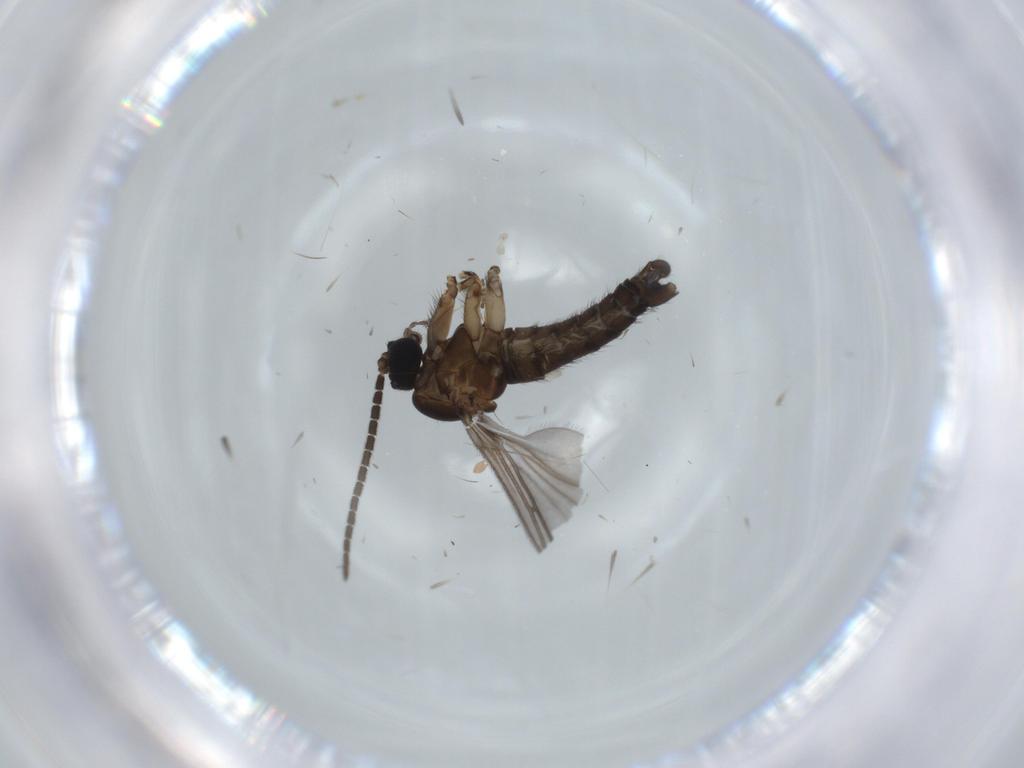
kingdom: Animalia
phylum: Arthropoda
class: Insecta
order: Diptera
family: Sciaridae
